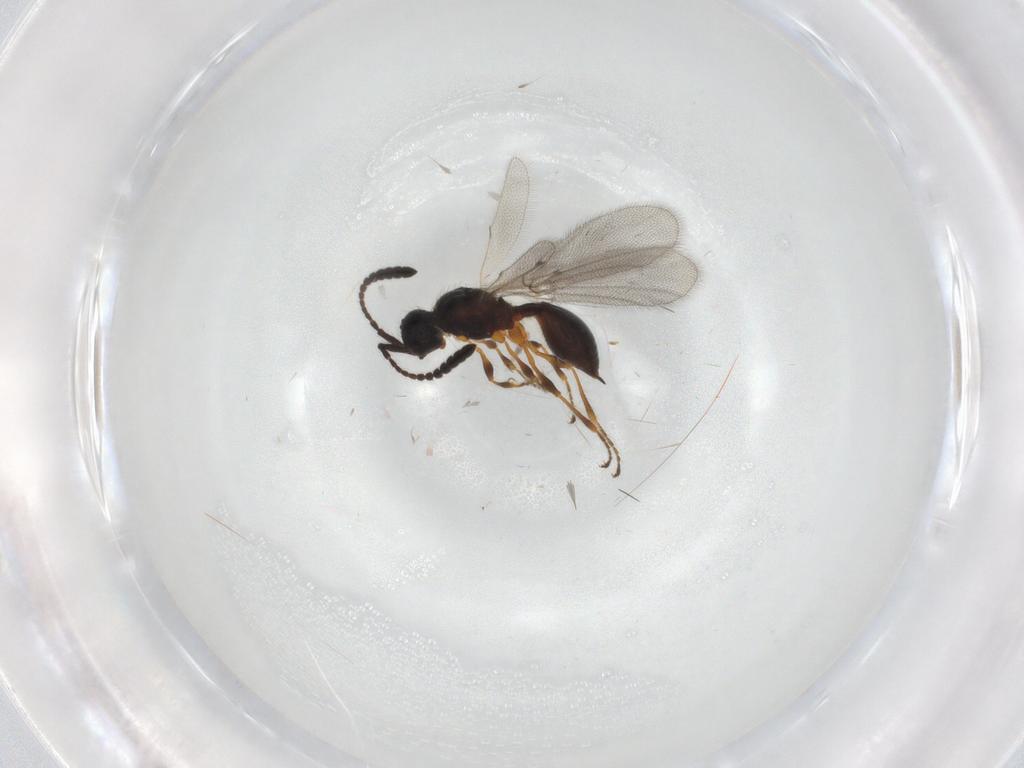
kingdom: Animalia
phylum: Arthropoda
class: Insecta
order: Hymenoptera
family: Diapriidae
